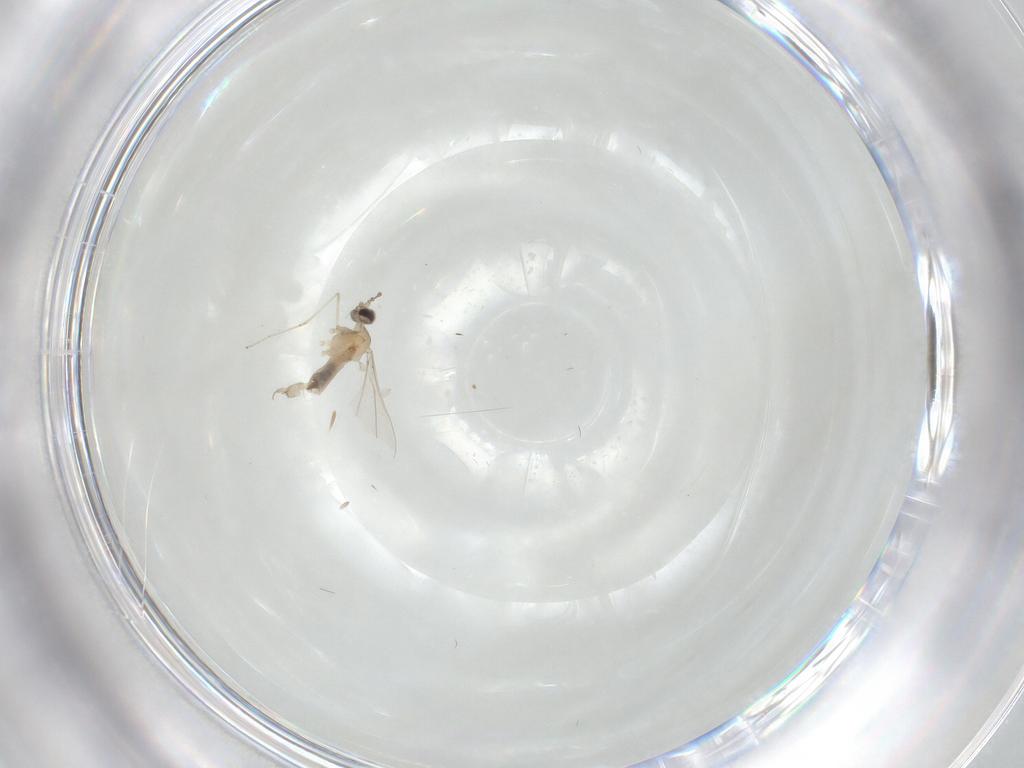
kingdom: Animalia
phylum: Arthropoda
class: Insecta
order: Diptera
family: Cecidomyiidae
